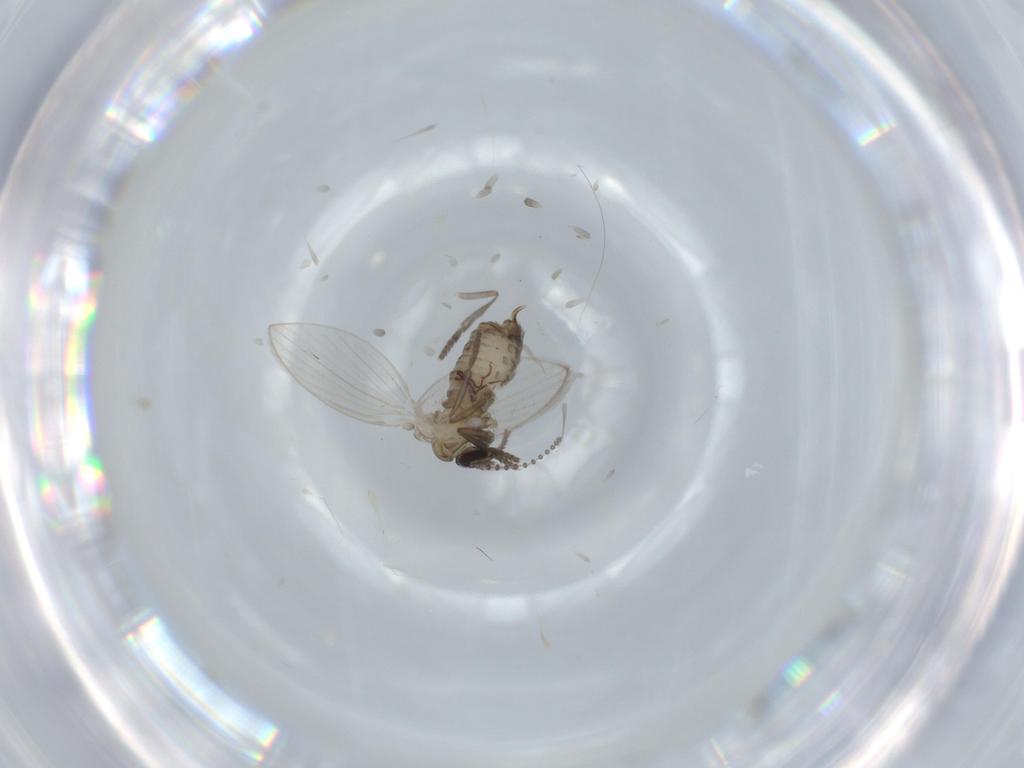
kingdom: Animalia
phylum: Arthropoda
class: Insecta
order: Diptera
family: Psychodidae
